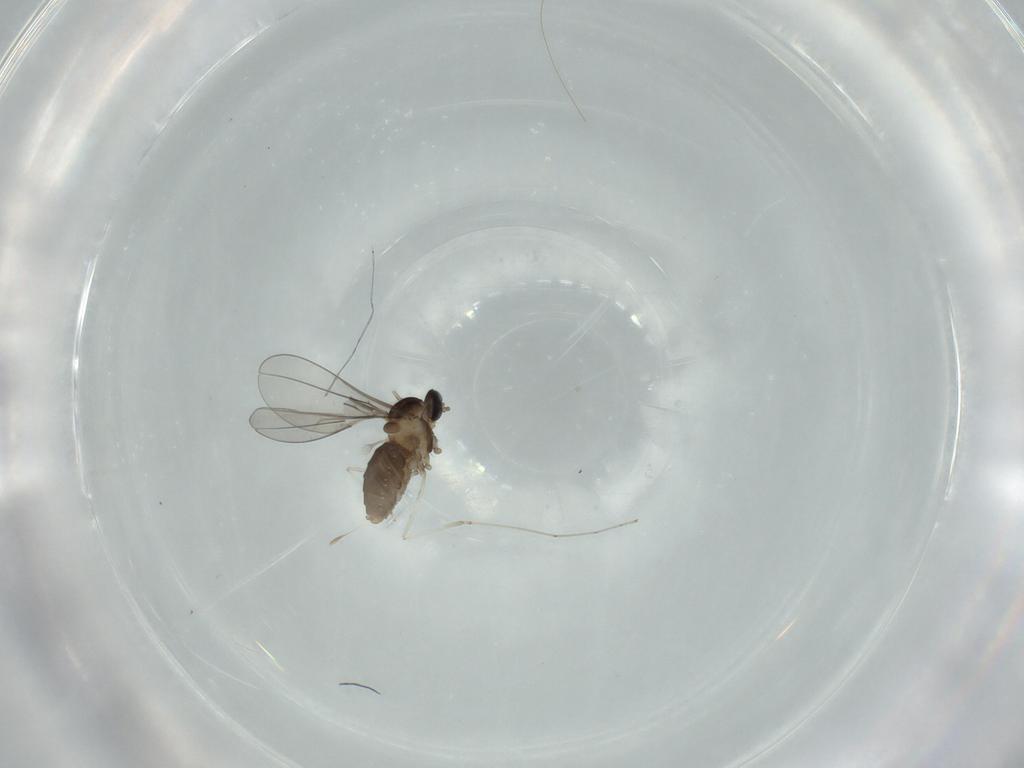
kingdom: Animalia
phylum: Arthropoda
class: Insecta
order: Diptera
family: Cecidomyiidae
